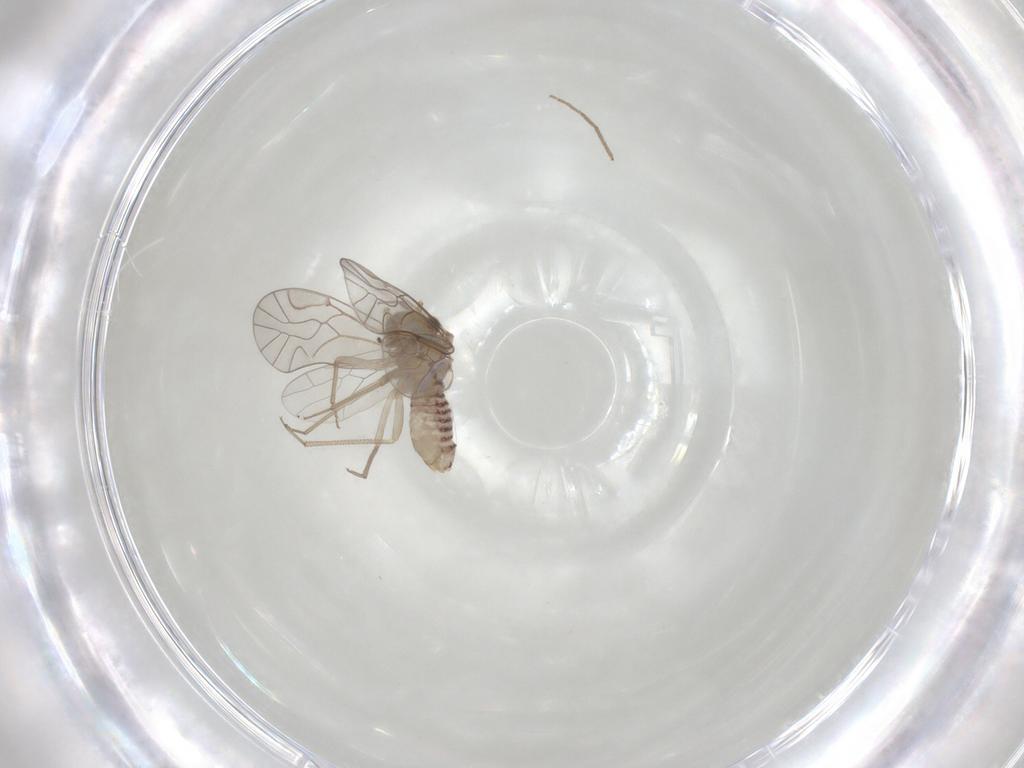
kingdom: Animalia
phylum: Arthropoda
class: Insecta
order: Psocodea
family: Lachesillidae
